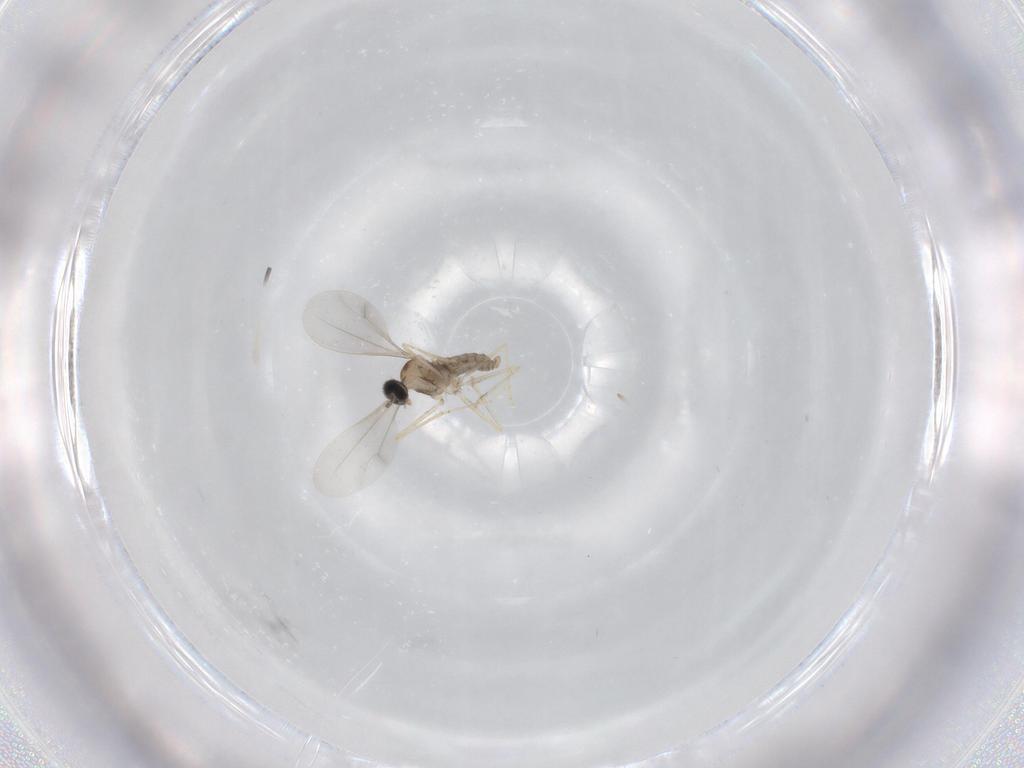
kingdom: Animalia
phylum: Arthropoda
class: Insecta
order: Diptera
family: Cecidomyiidae
